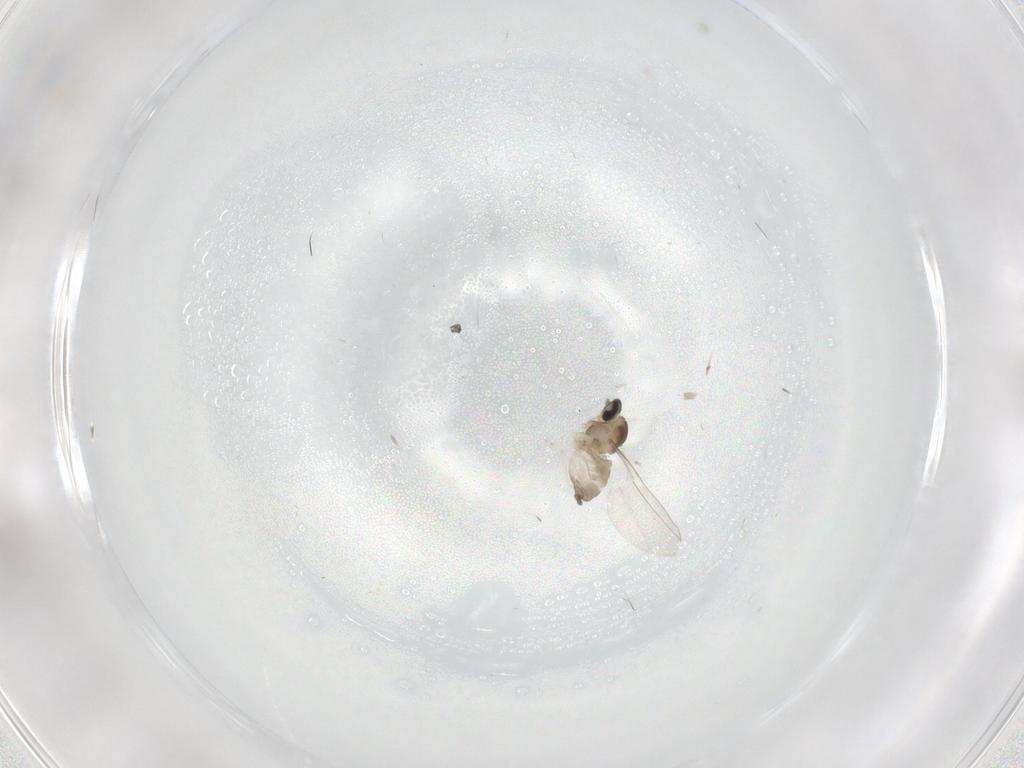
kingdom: Animalia
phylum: Arthropoda
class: Insecta
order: Diptera
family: Cecidomyiidae
